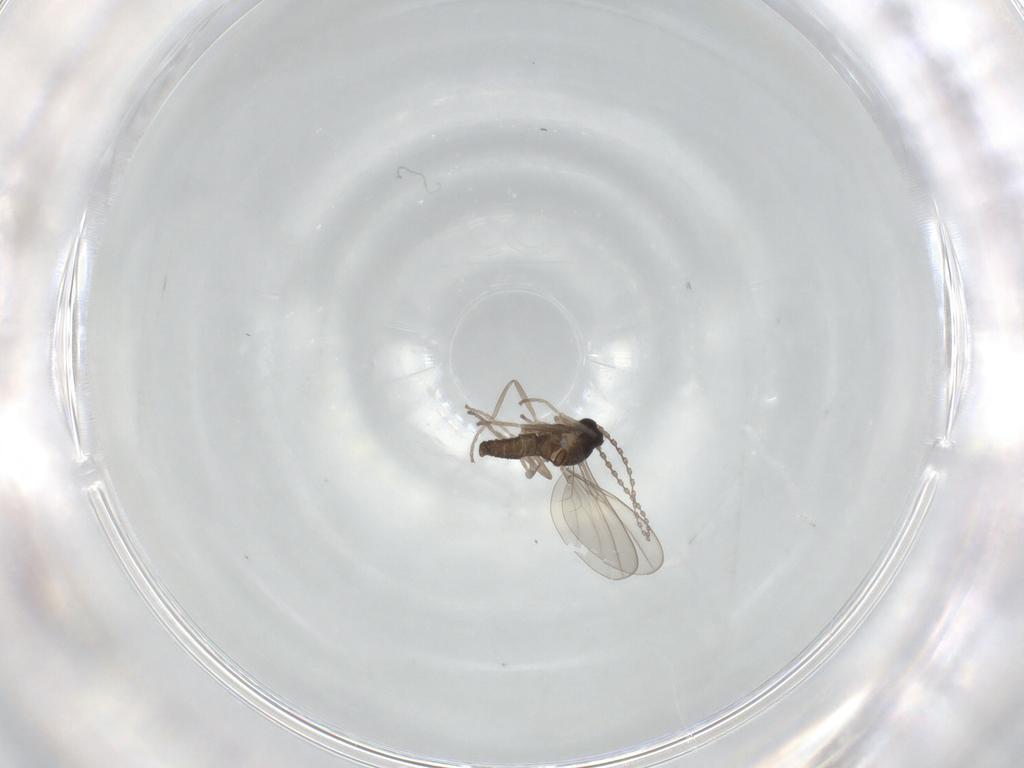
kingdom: Animalia
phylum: Arthropoda
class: Insecta
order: Diptera
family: Cecidomyiidae
